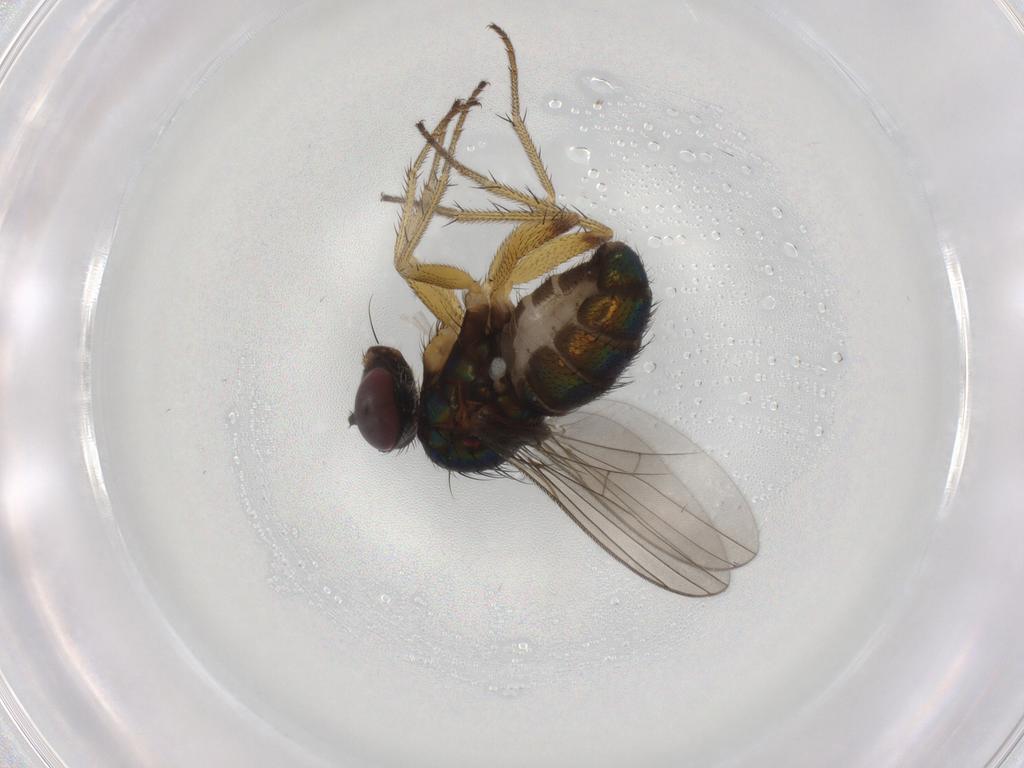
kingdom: Animalia
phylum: Arthropoda
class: Insecta
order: Diptera
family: Dolichopodidae
